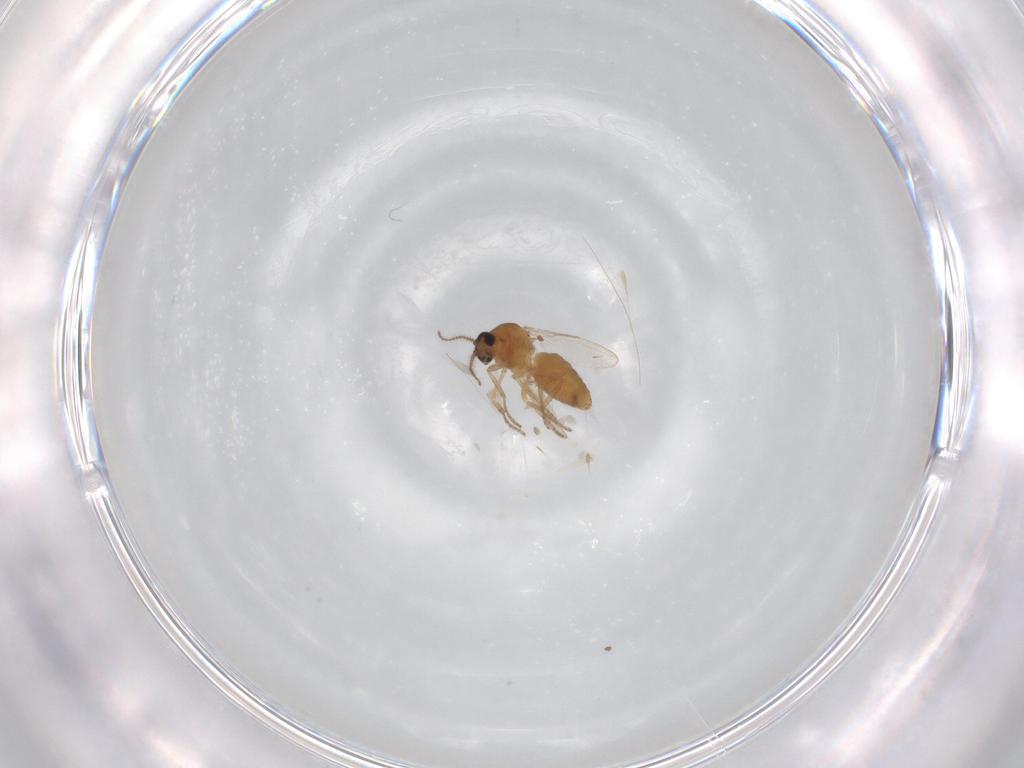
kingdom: Animalia
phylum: Arthropoda
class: Insecta
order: Diptera
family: Ceratopogonidae
